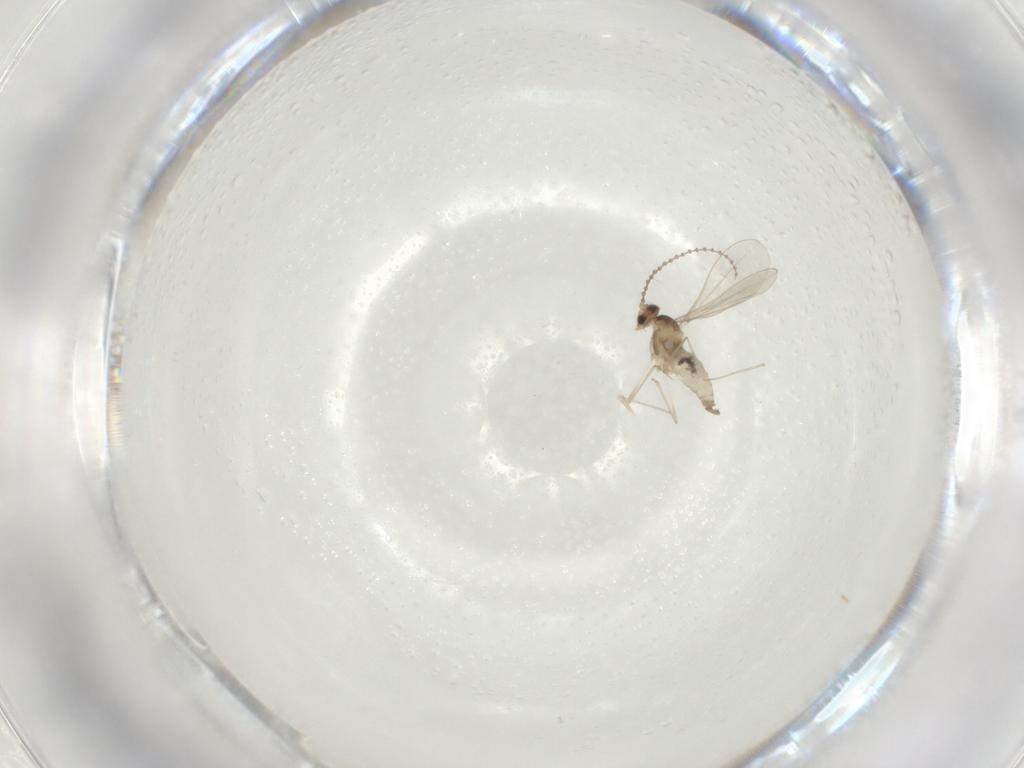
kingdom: Animalia
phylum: Arthropoda
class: Insecta
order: Diptera
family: Cecidomyiidae
